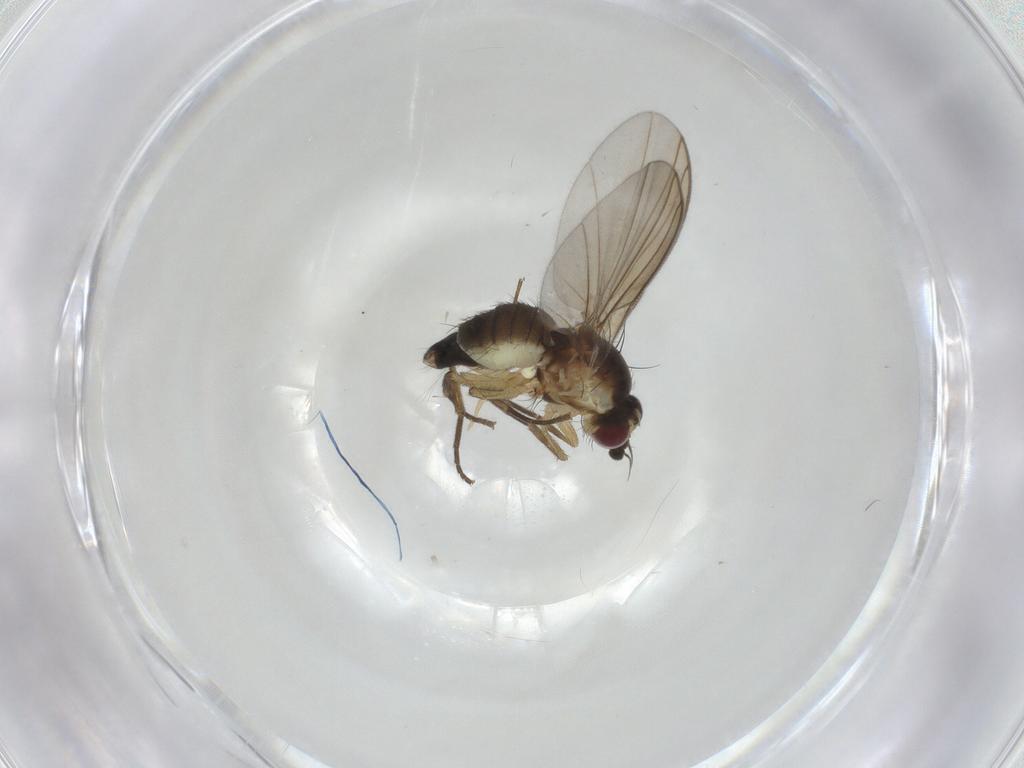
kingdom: Animalia
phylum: Arthropoda
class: Insecta
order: Diptera
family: Agromyzidae
